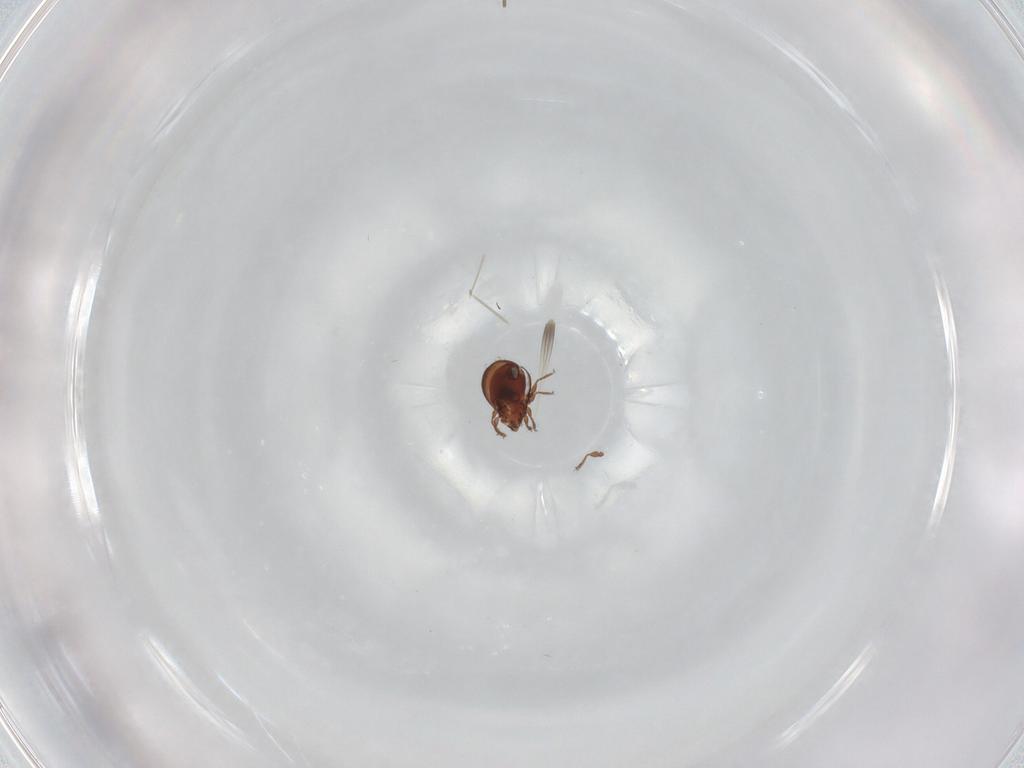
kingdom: Animalia
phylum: Arthropoda
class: Arachnida
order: Sarcoptiformes
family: Scheloribatidae
